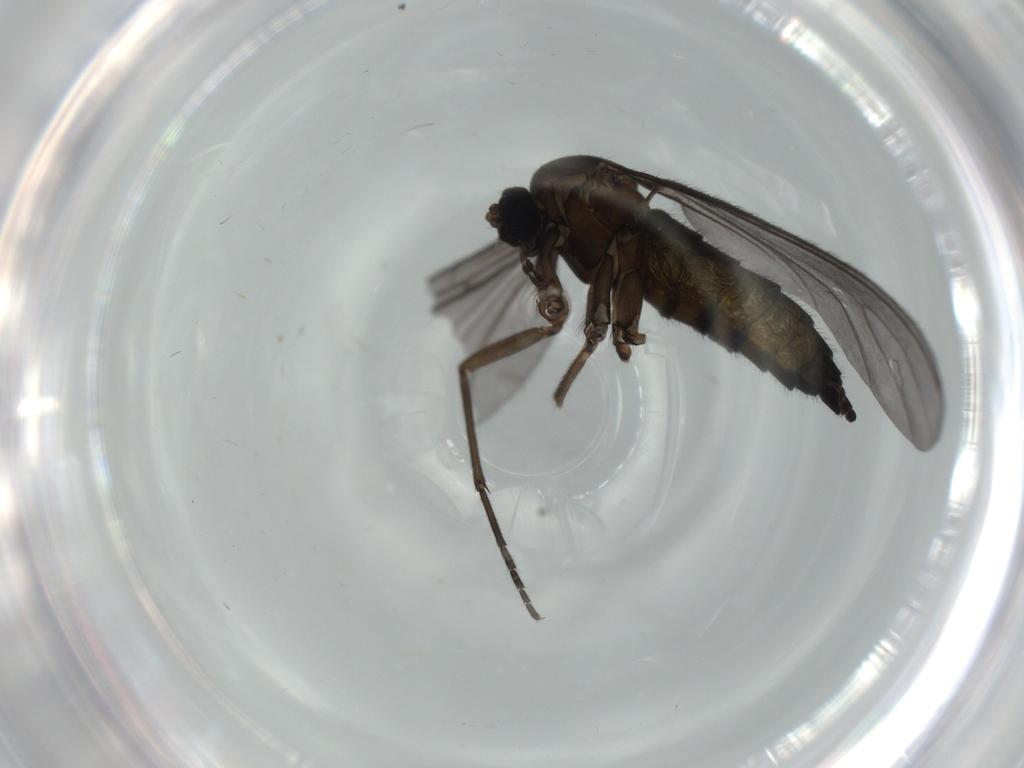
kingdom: Animalia
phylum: Arthropoda
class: Insecta
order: Diptera
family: Sciaridae
